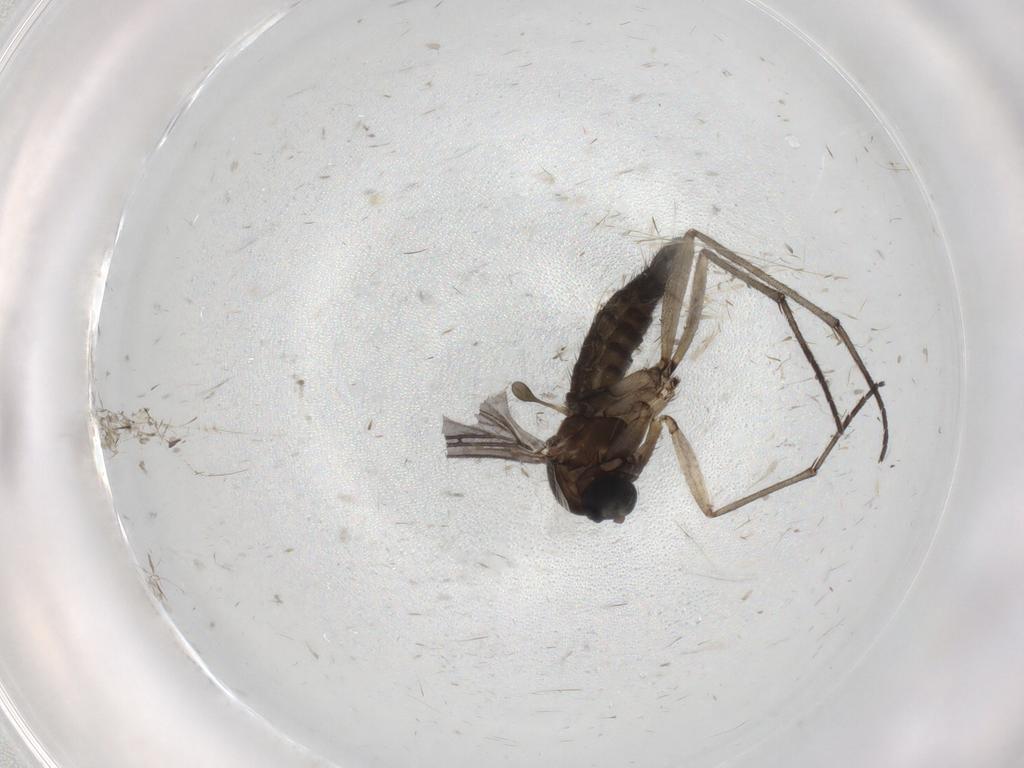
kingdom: Animalia
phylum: Arthropoda
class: Insecta
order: Diptera
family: Sciaridae
